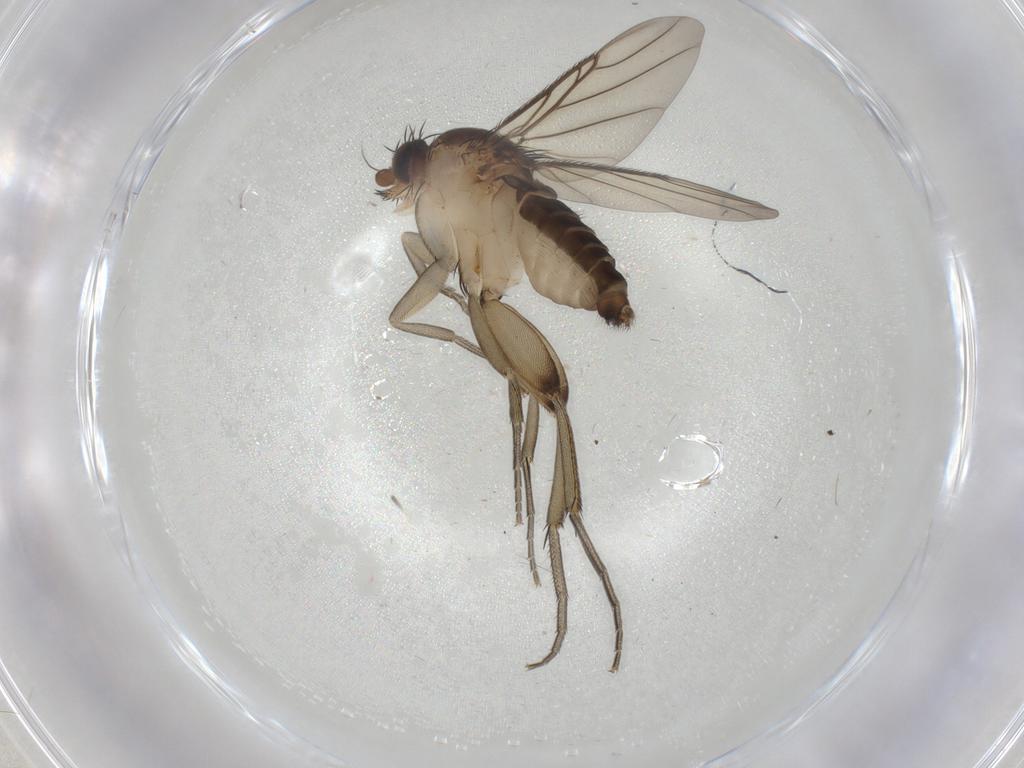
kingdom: Animalia
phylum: Arthropoda
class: Insecta
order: Diptera
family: Phoridae
